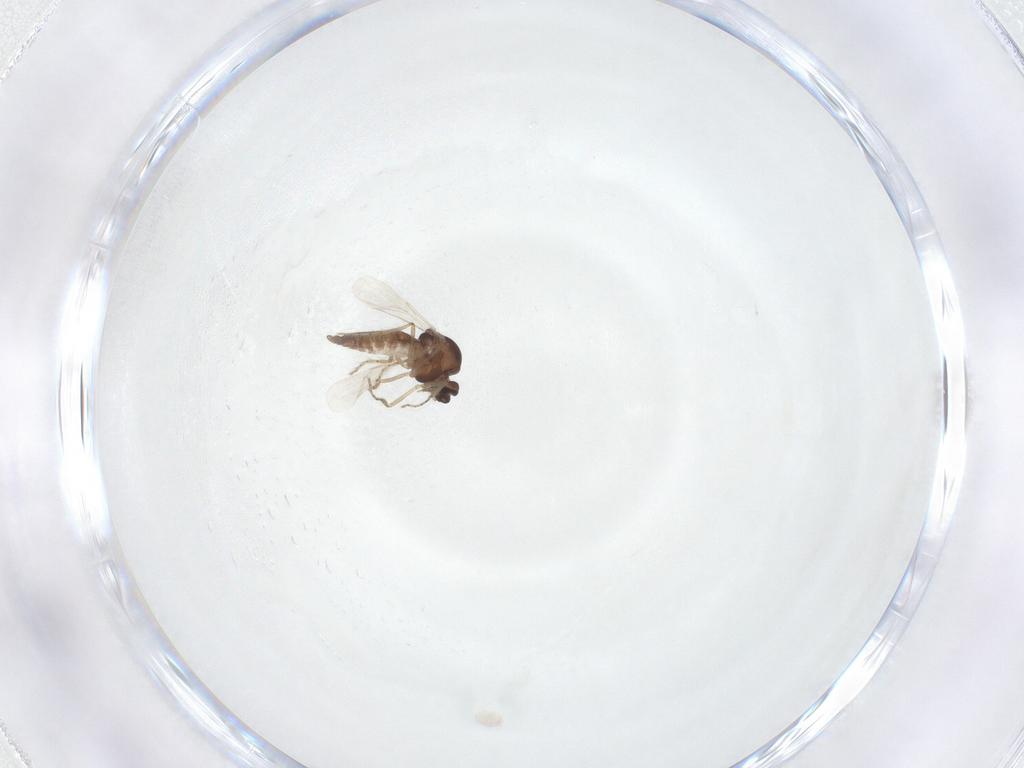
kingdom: Animalia
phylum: Arthropoda
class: Insecta
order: Diptera
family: Ceratopogonidae
